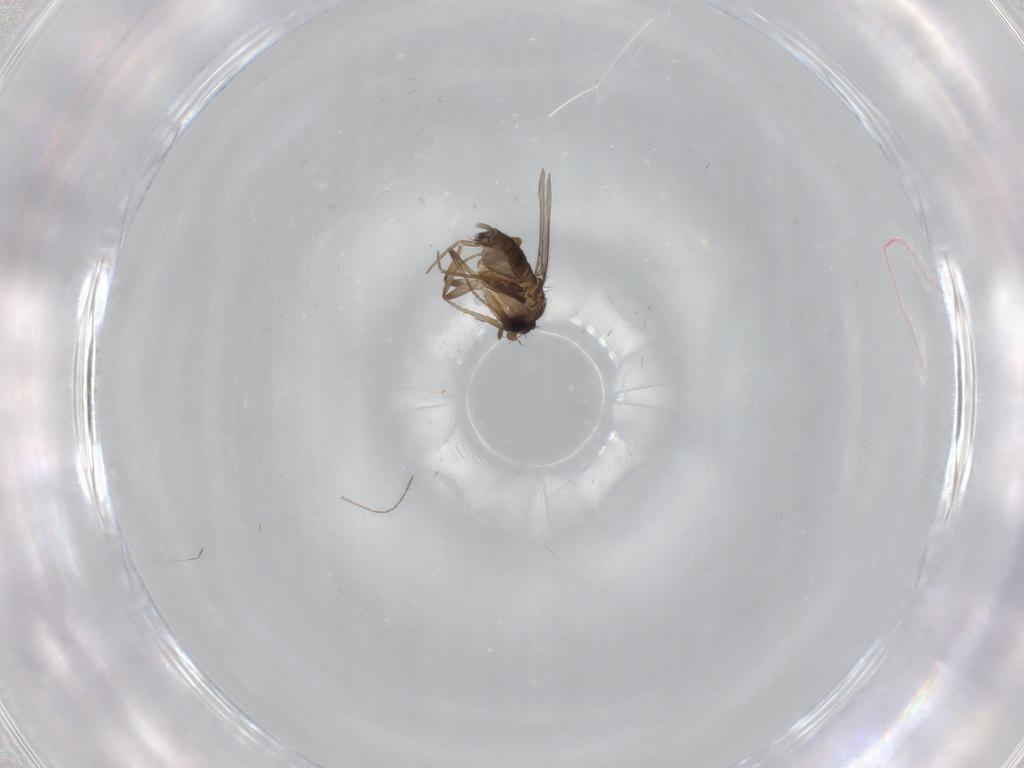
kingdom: Animalia
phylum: Arthropoda
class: Insecta
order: Diptera
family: Phoridae
